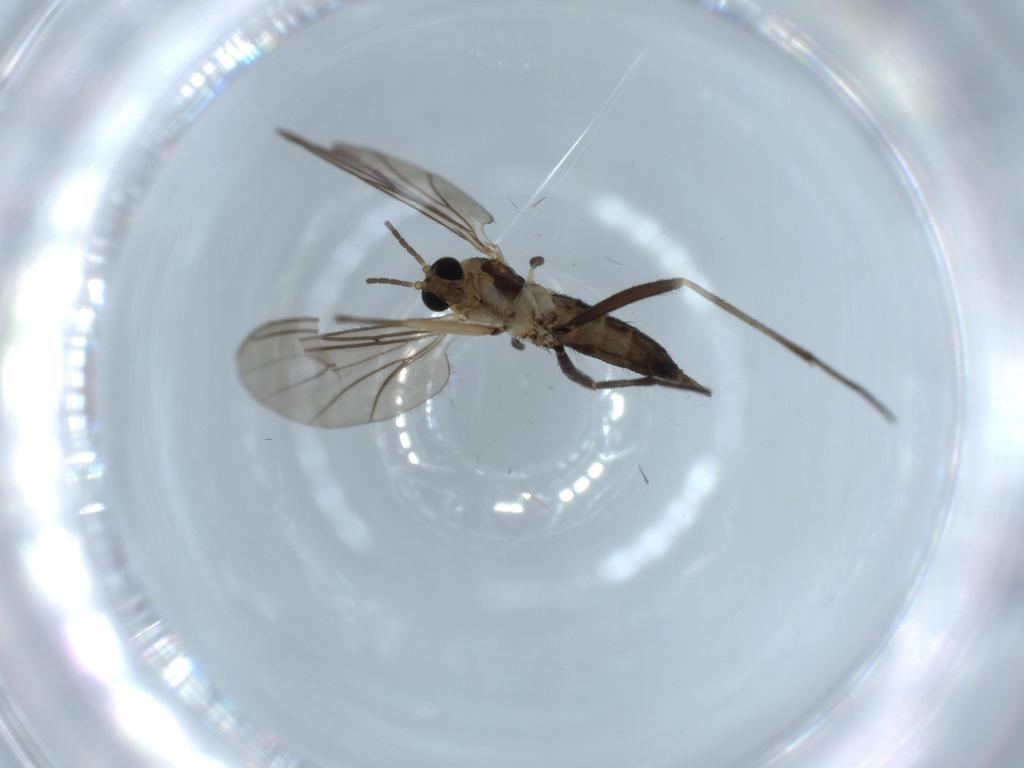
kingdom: Animalia
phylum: Arthropoda
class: Insecta
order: Diptera
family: Sciaridae
